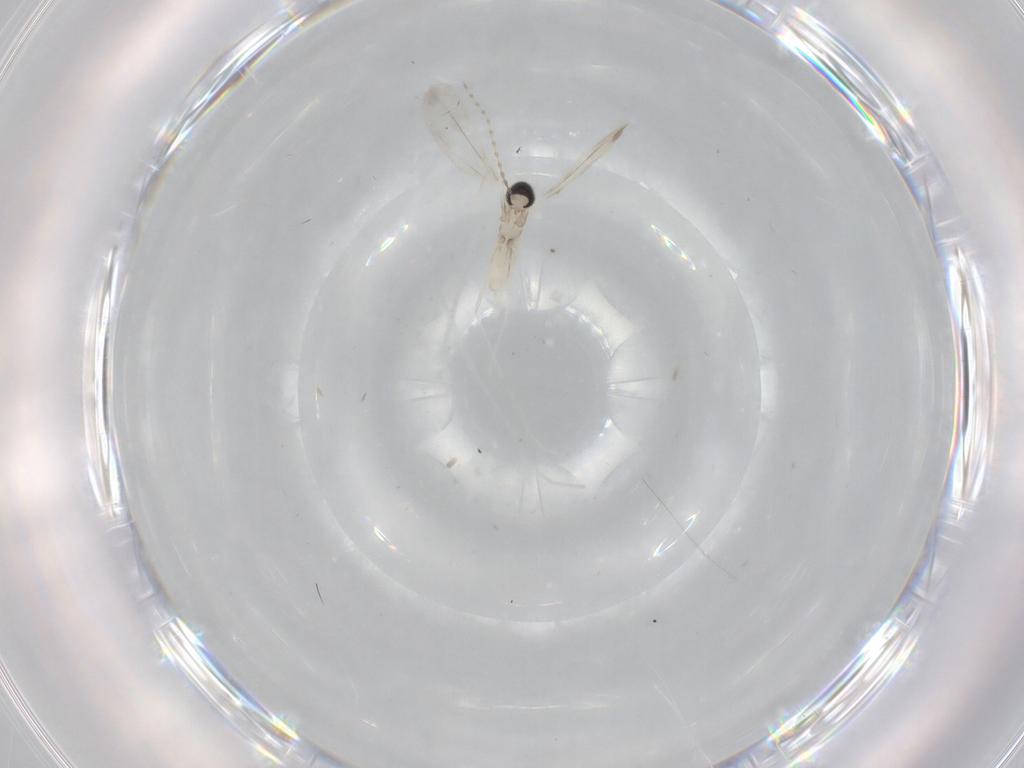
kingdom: Animalia
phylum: Arthropoda
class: Insecta
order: Diptera
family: Cecidomyiidae
